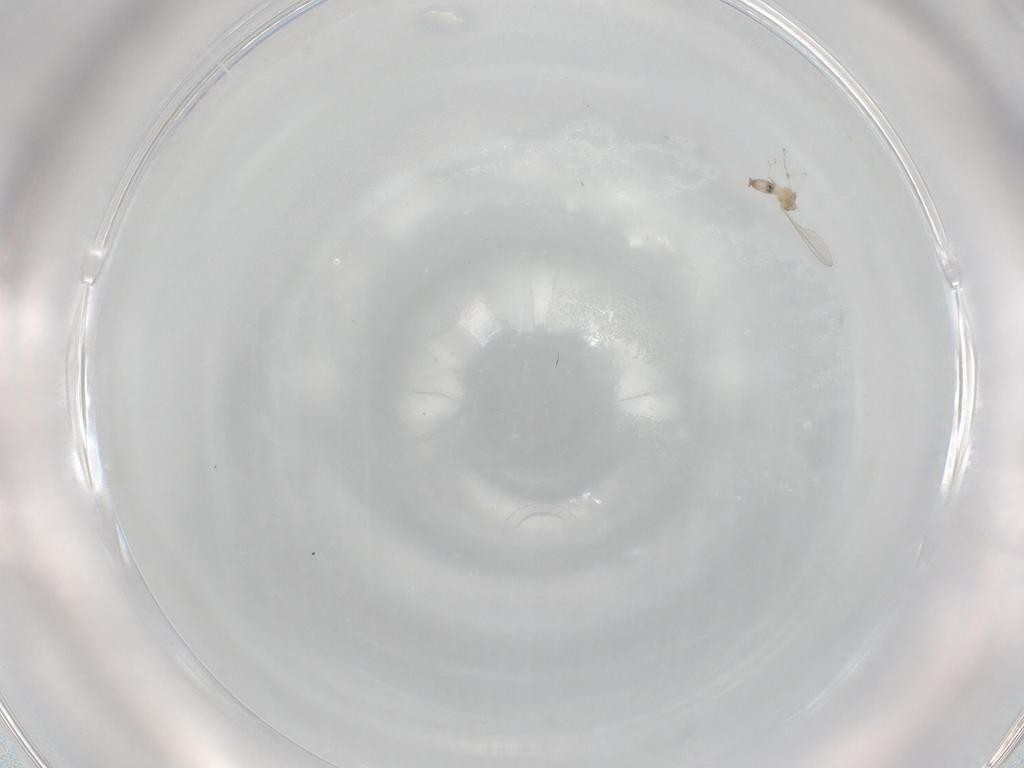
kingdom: Animalia
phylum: Arthropoda
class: Insecta
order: Diptera
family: Cecidomyiidae
